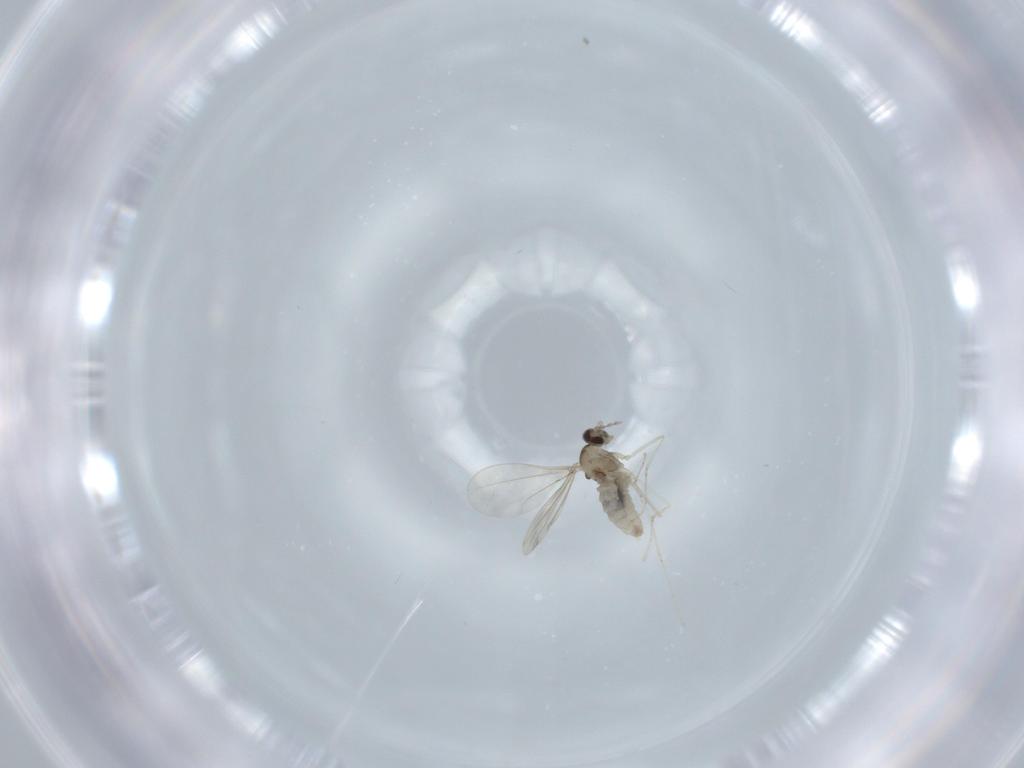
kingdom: Animalia
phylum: Arthropoda
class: Insecta
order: Diptera
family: Cecidomyiidae
